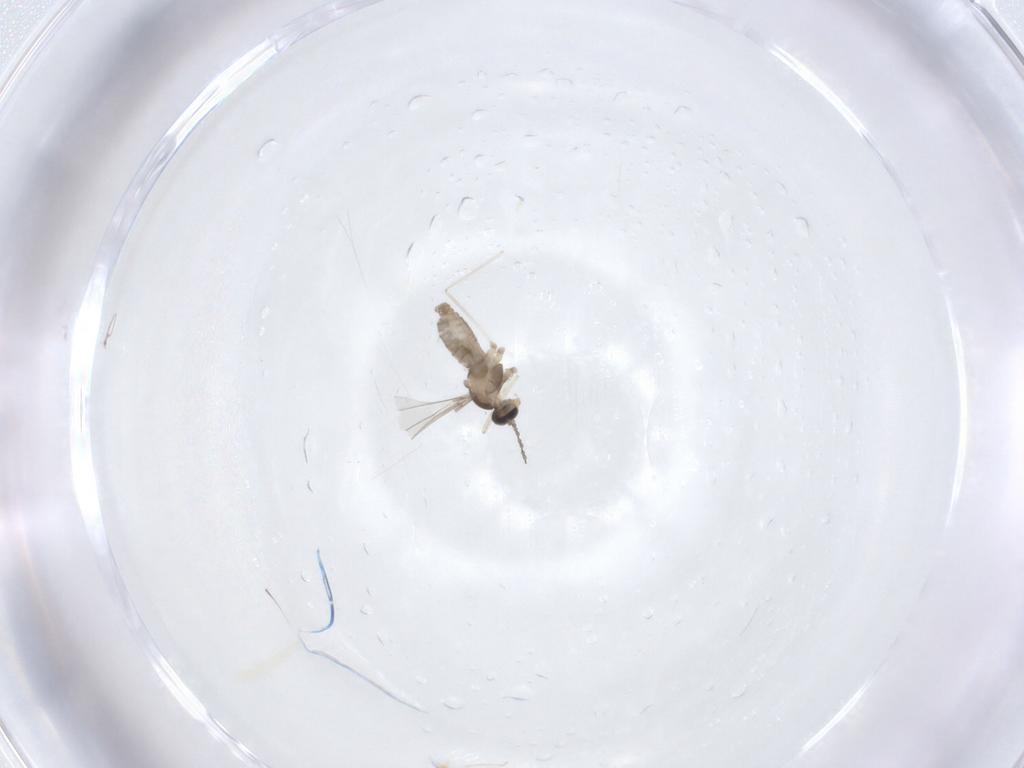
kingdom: Animalia
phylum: Arthropoda
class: Insecta
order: Diptera
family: Cecidomyiidae
